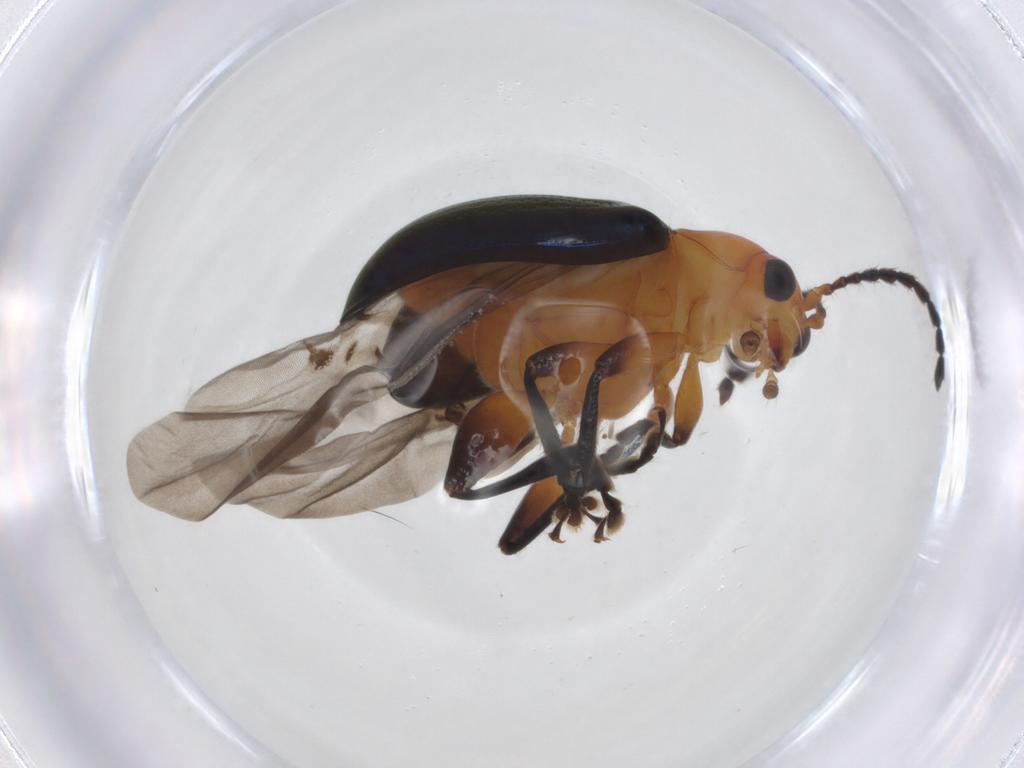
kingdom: Animalia
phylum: Arthropoda
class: Insecta
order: Coleoptera
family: Chrysomelidae
